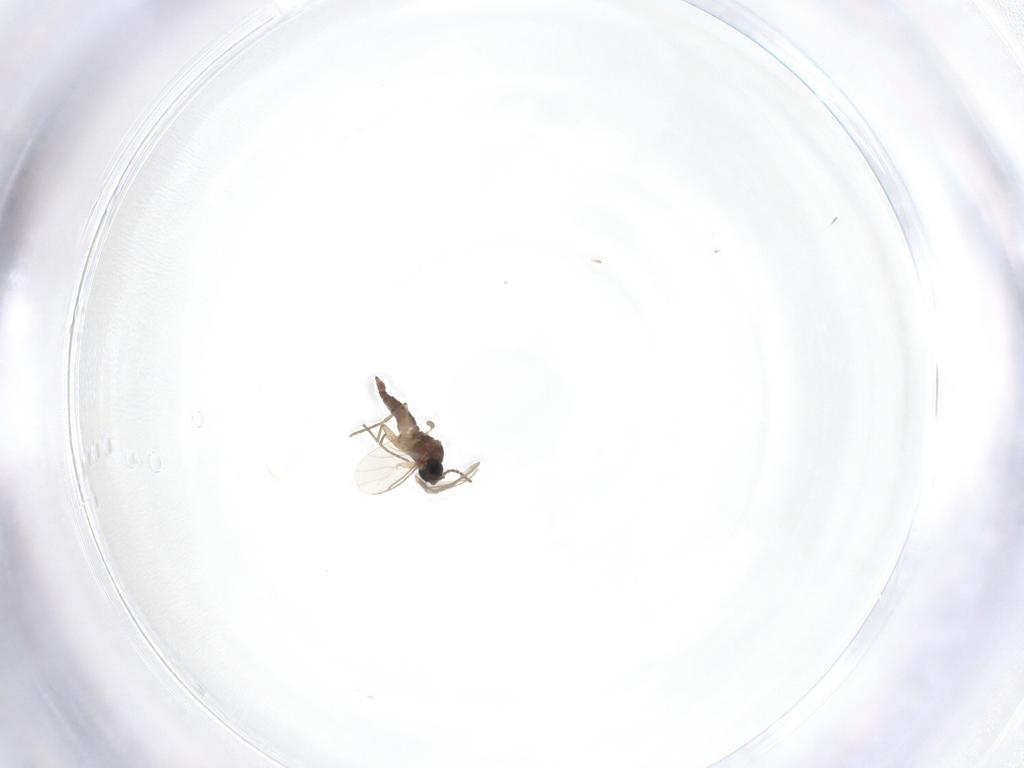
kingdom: Animalia
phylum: Arthropoda
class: Insecta
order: Diptera
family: Sciaridae
